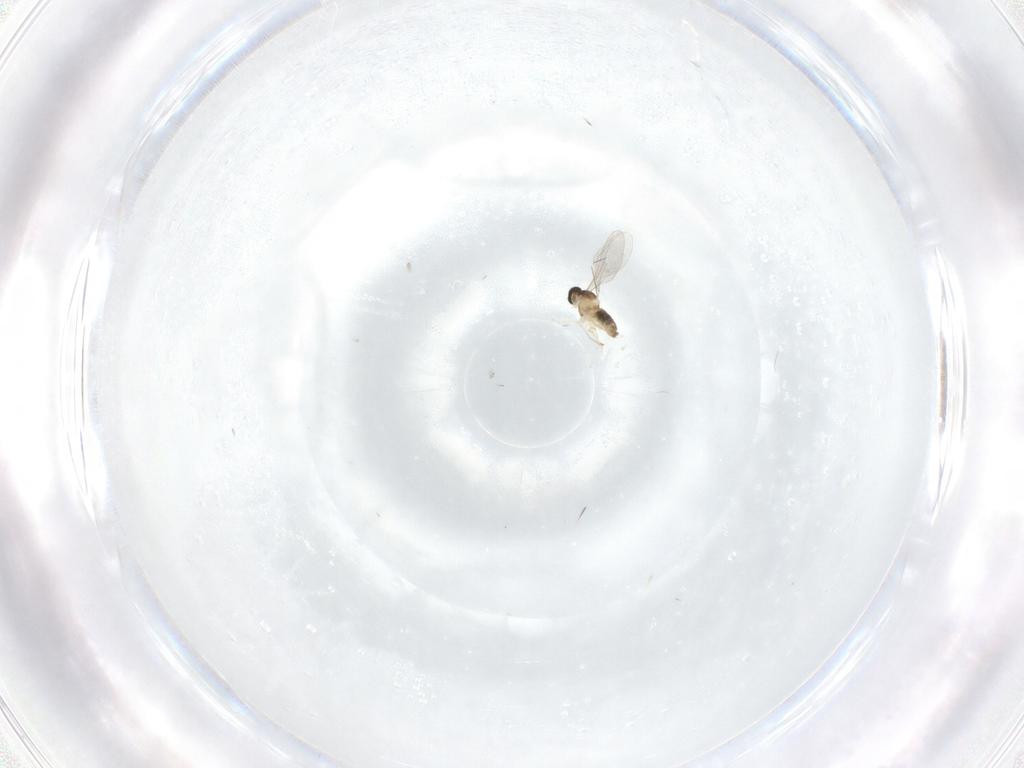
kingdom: Animalia
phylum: Arthropoda
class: Insecta
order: Diptera
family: Cecidomyiidae
